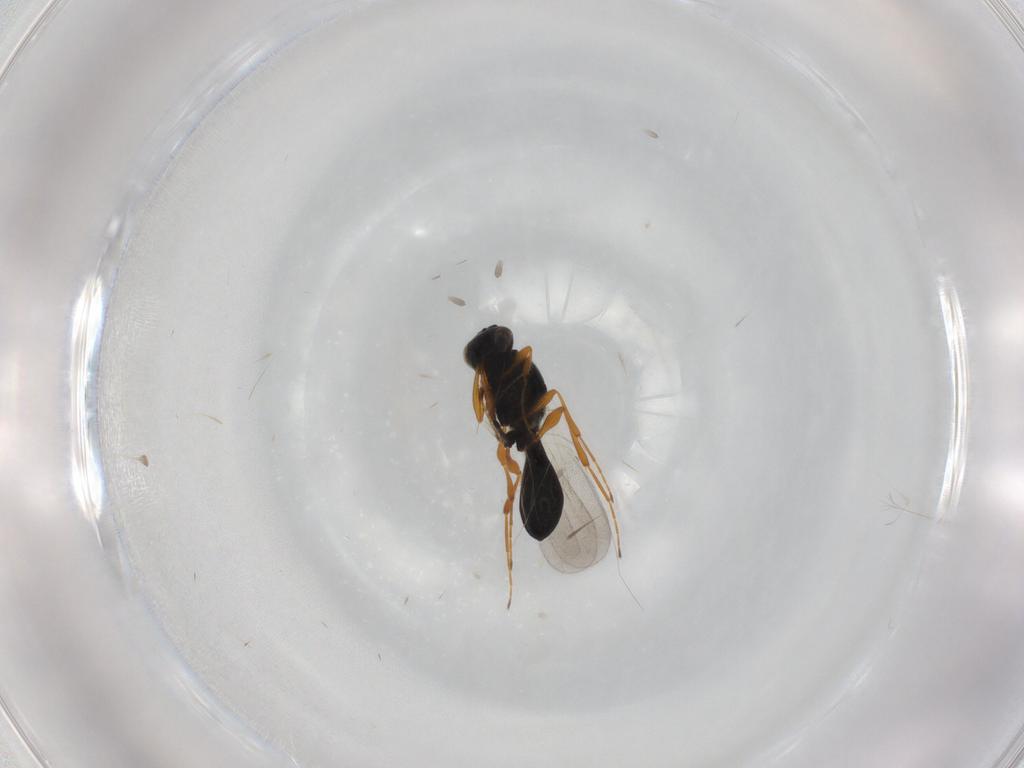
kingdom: Animalia
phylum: Arthropoda
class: Insecta
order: Hymenoptera
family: Platygastridae
